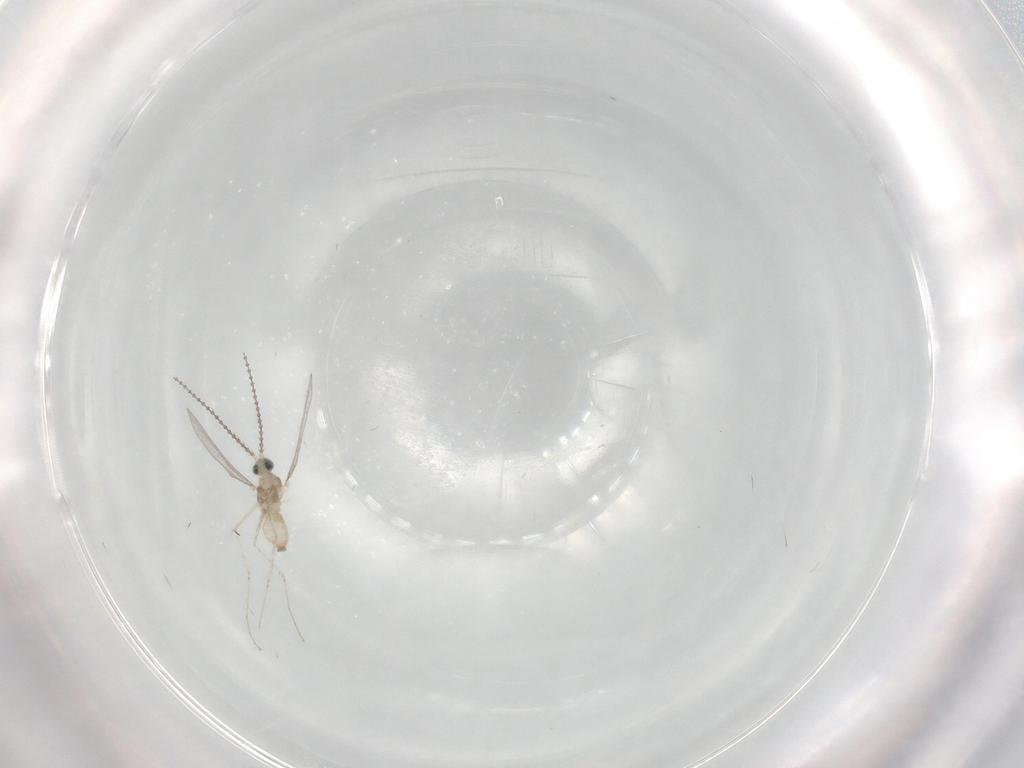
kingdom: Animalia
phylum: Arthropoda
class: Insecta
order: Diptera
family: Cecidomyiidae
